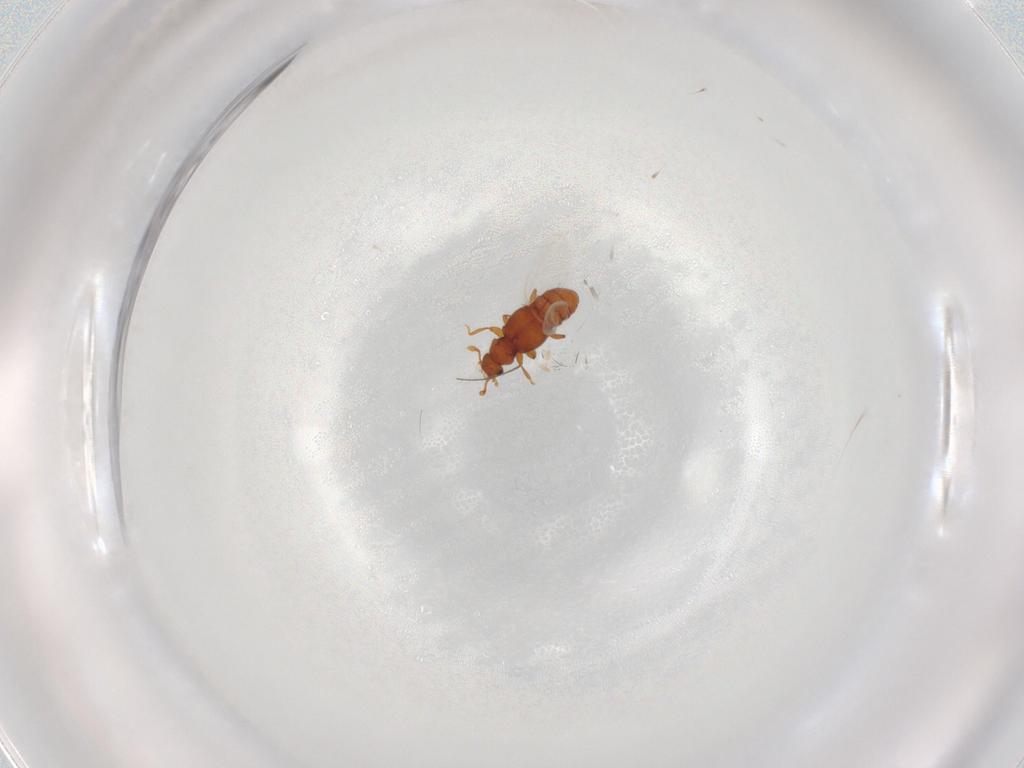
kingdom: Animalia
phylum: Arthropoda
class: Insecta
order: Coleoptera
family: Staphylinidae
